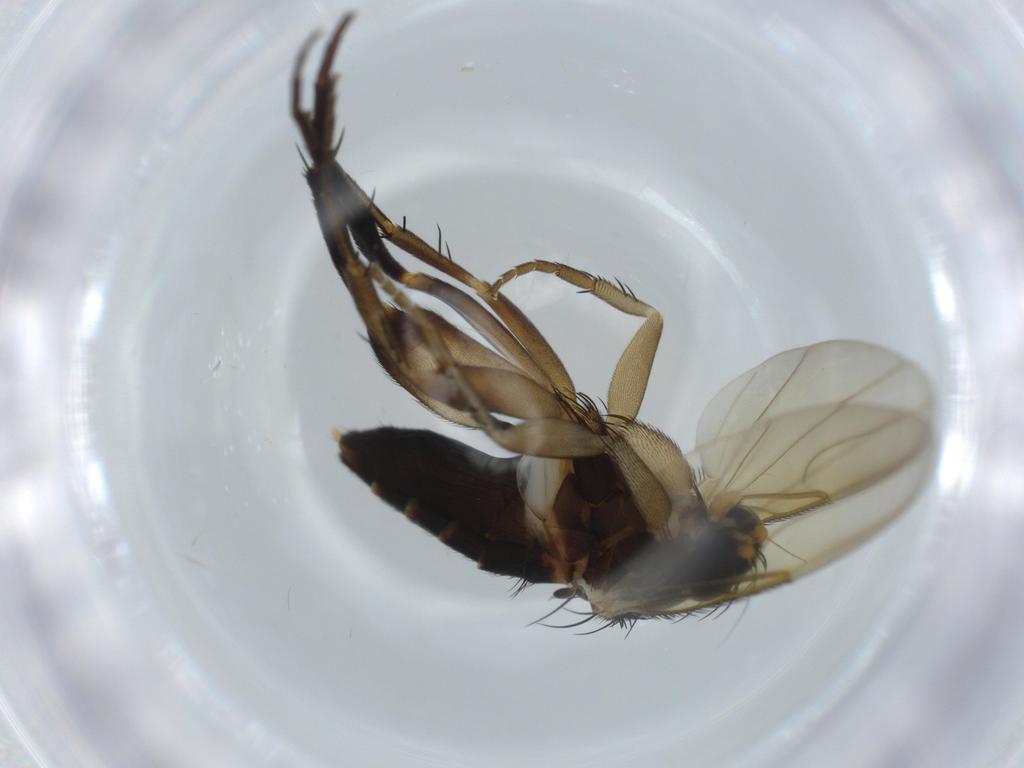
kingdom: Animalia
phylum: Arthropoda
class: Insecta
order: Diptera
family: Phoridae
